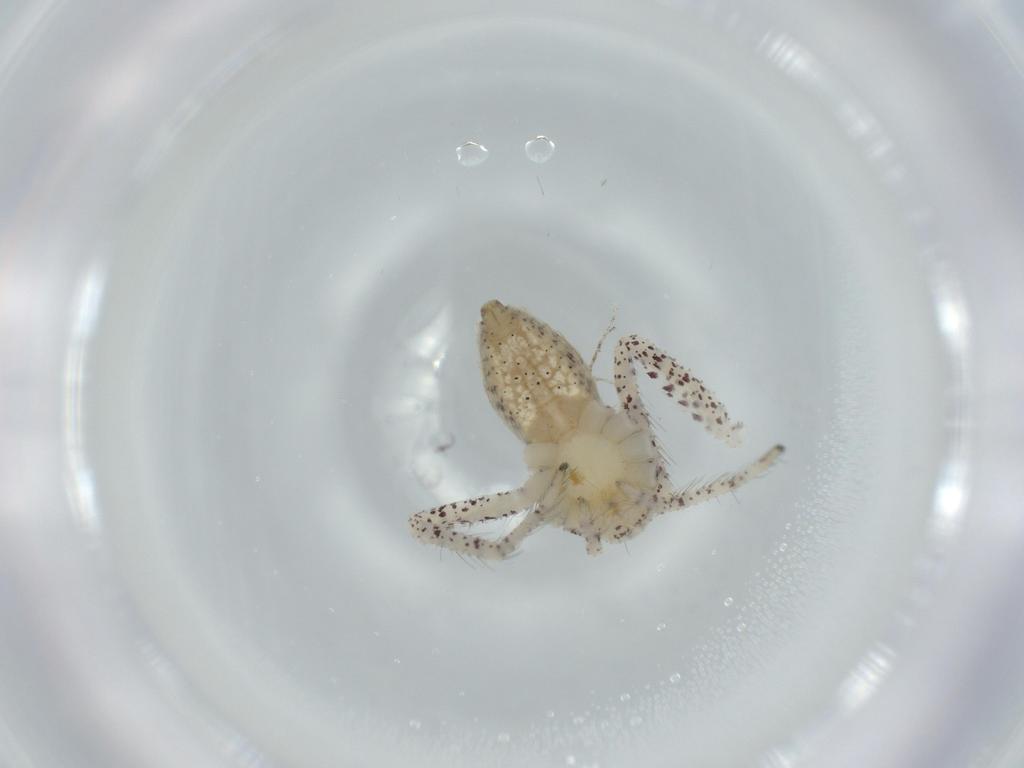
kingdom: Animalia
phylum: Arthropoda
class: Arachnida
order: Araneae
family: Philodromidae
